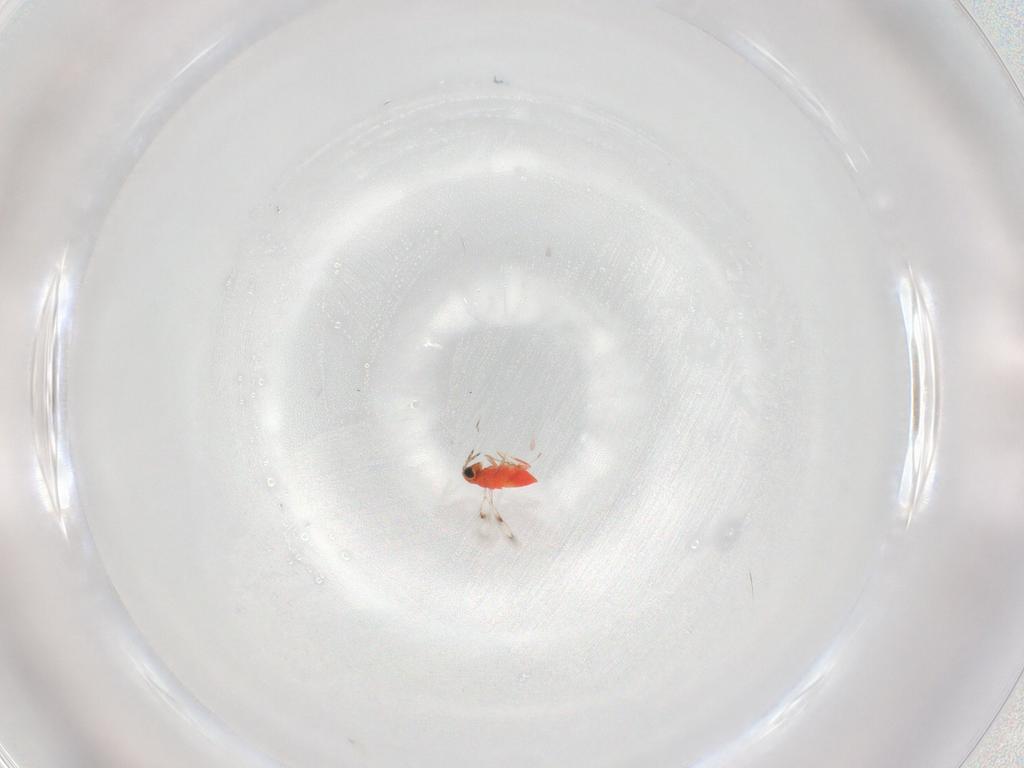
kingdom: Animalia
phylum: Arthropoda
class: Insecta
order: Hymenoptera
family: Trichogrammatidae
